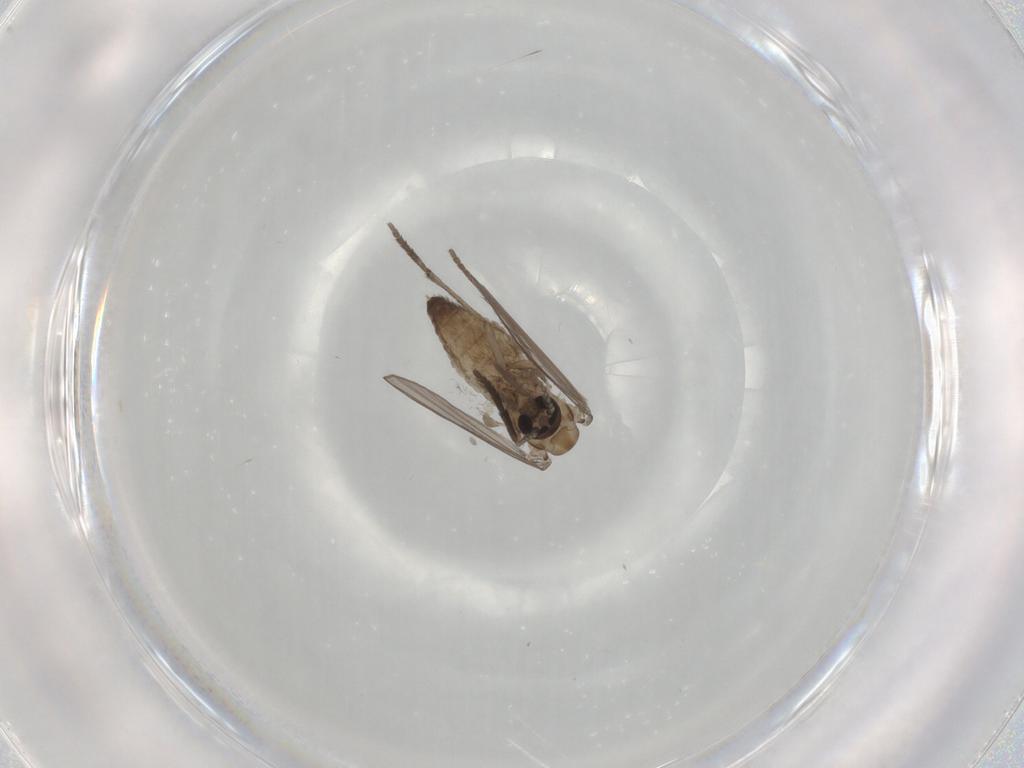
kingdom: Animalia
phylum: Arthropoda
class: Insecta
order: Diptera
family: Psychodidae
